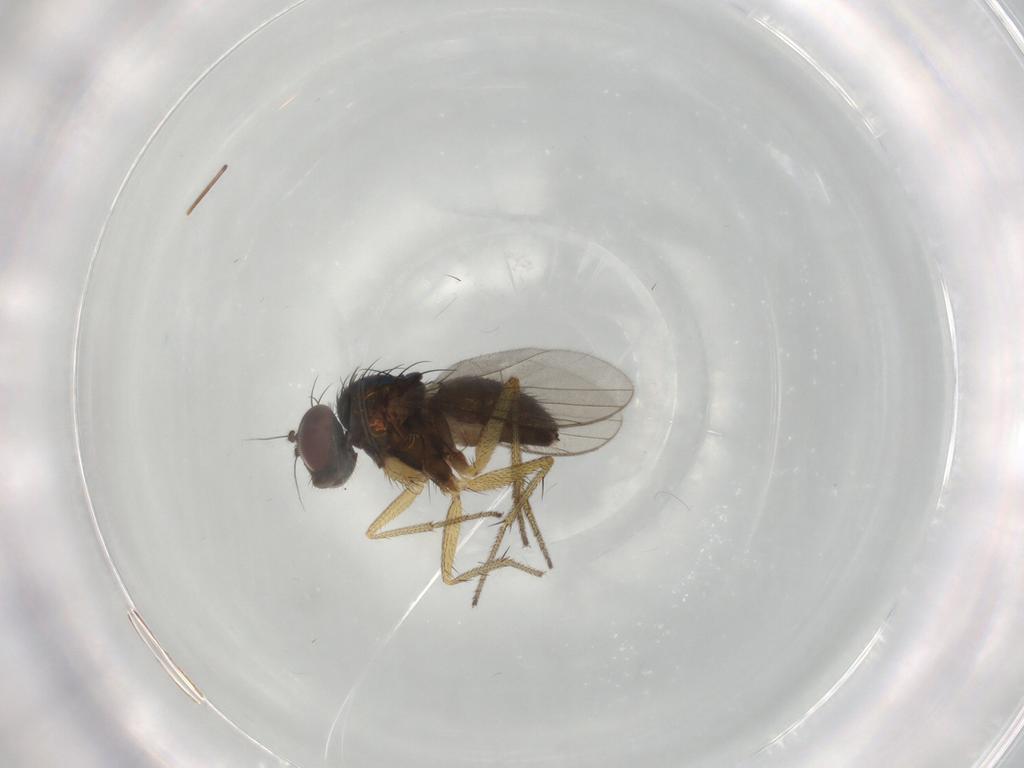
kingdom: Animalia
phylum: Arthropoda
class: Insecta
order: Diptera
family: Dolichopodidae
